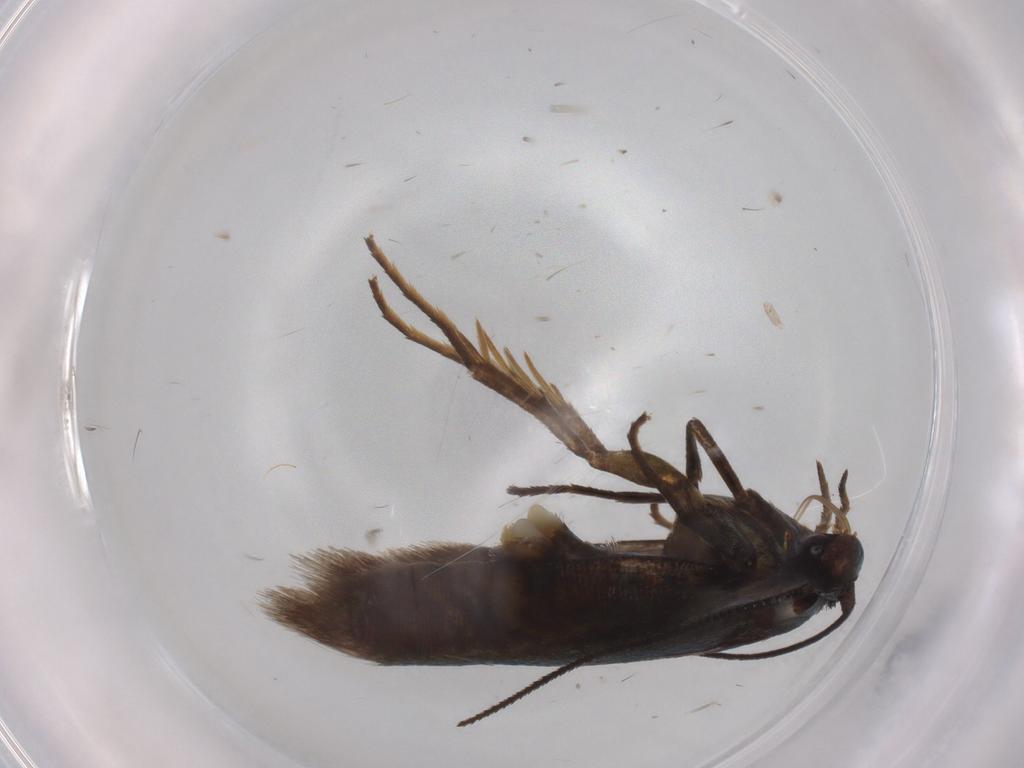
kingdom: Animalia
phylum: Arthropoda
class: Insecta
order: Lepidoptera
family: Argyresthiidae
